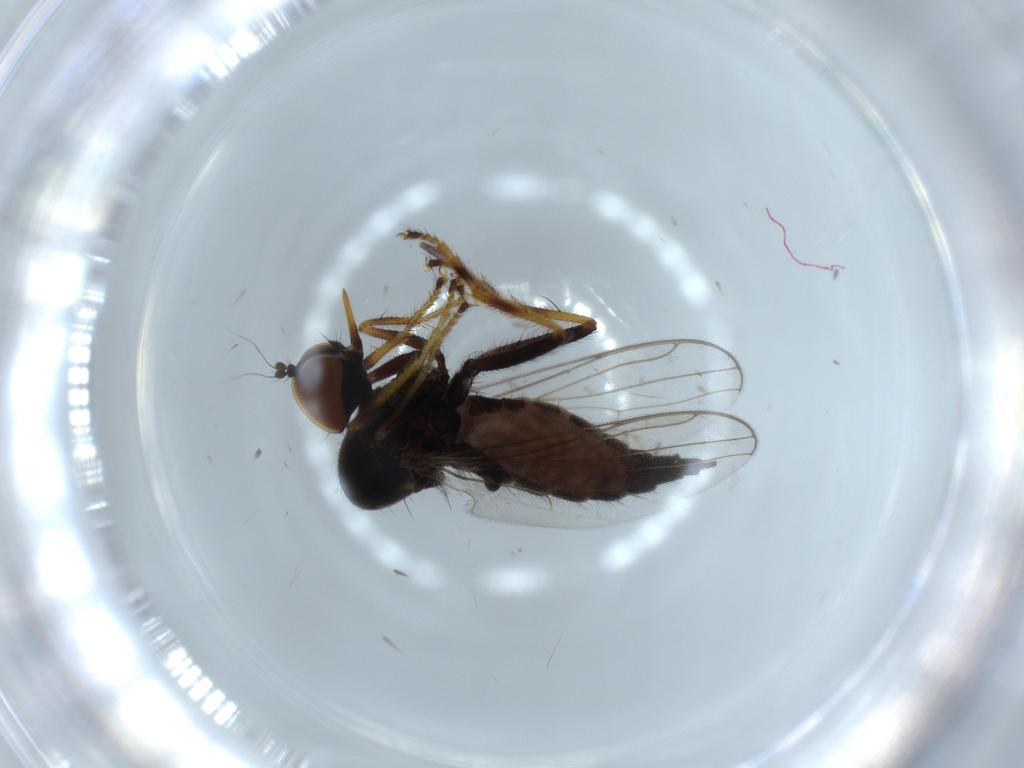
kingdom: Animalia
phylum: Arthropoda
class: Insecta
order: Diptera
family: Hybotidae
